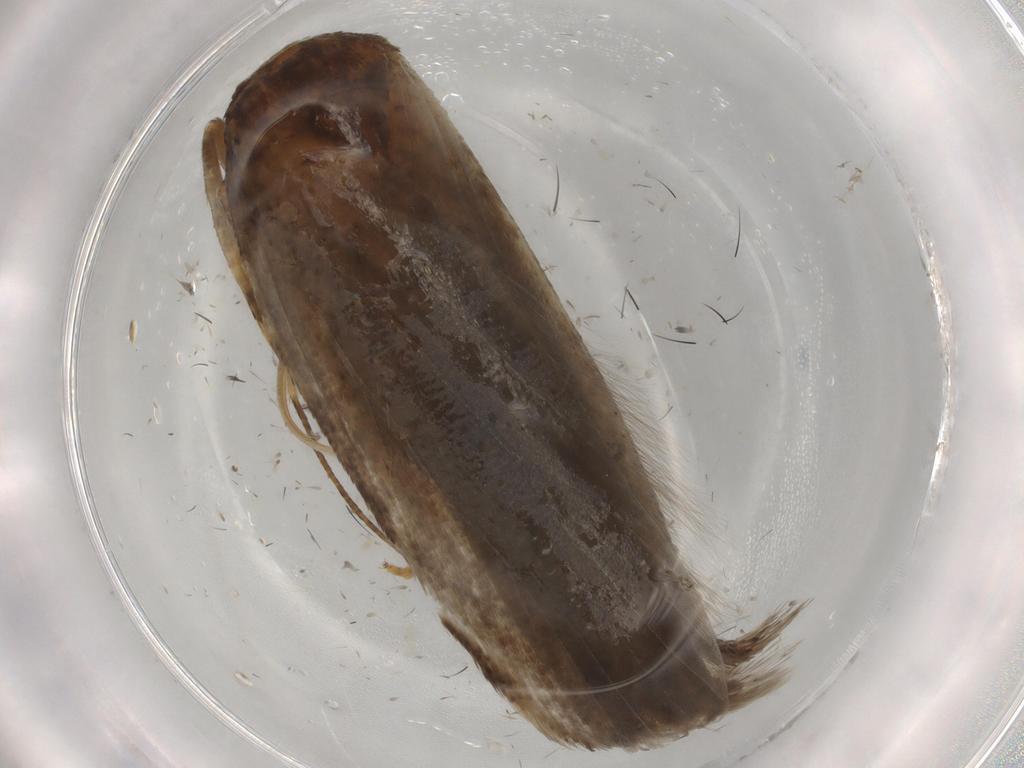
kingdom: Animalia
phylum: Arthropoda
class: Insecta
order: Lepidoptera
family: Gelechiidae
